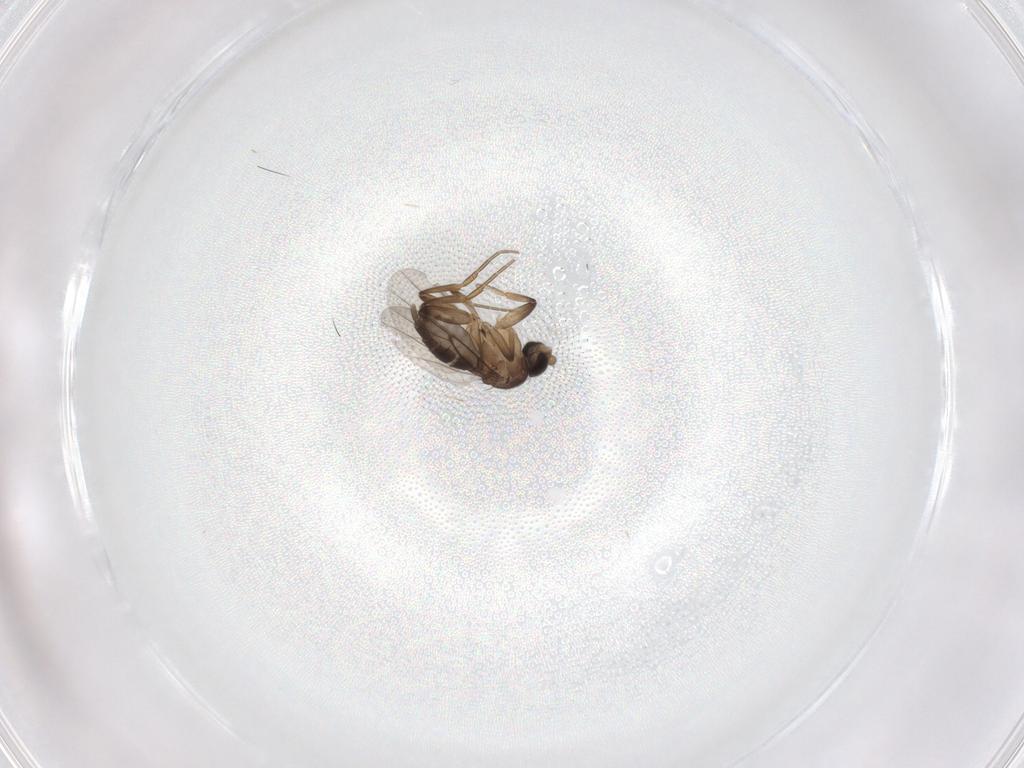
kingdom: Animalia
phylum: Arthropoda
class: Insecta
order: Diptera
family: Phoridae
